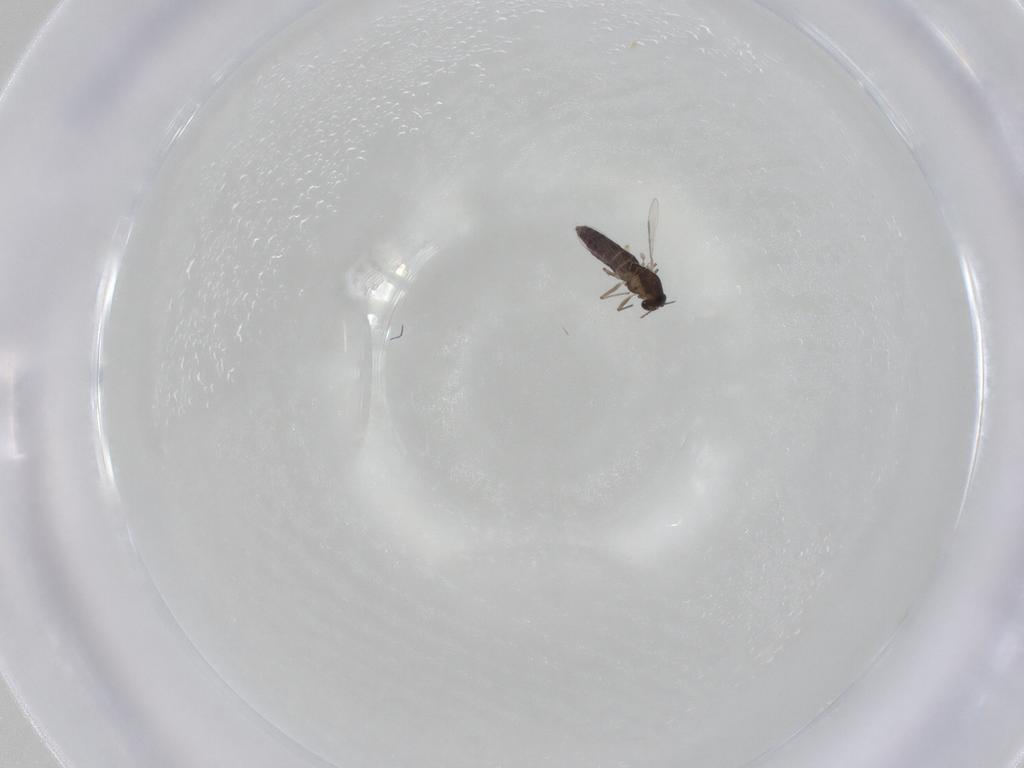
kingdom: Animalia
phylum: Arthropoda
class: Insecta
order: Diptera
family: Chironomidae
